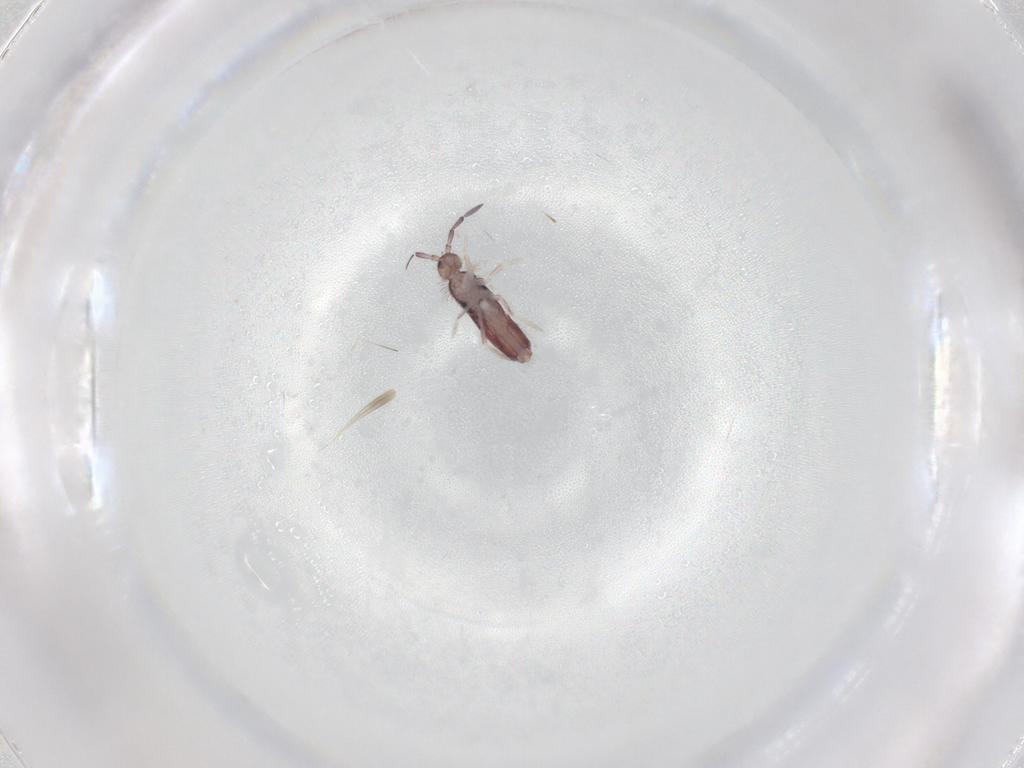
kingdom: Animalia
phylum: Arthropoda
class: Collembola
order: Entomobryomorpha
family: Entomobryidae
